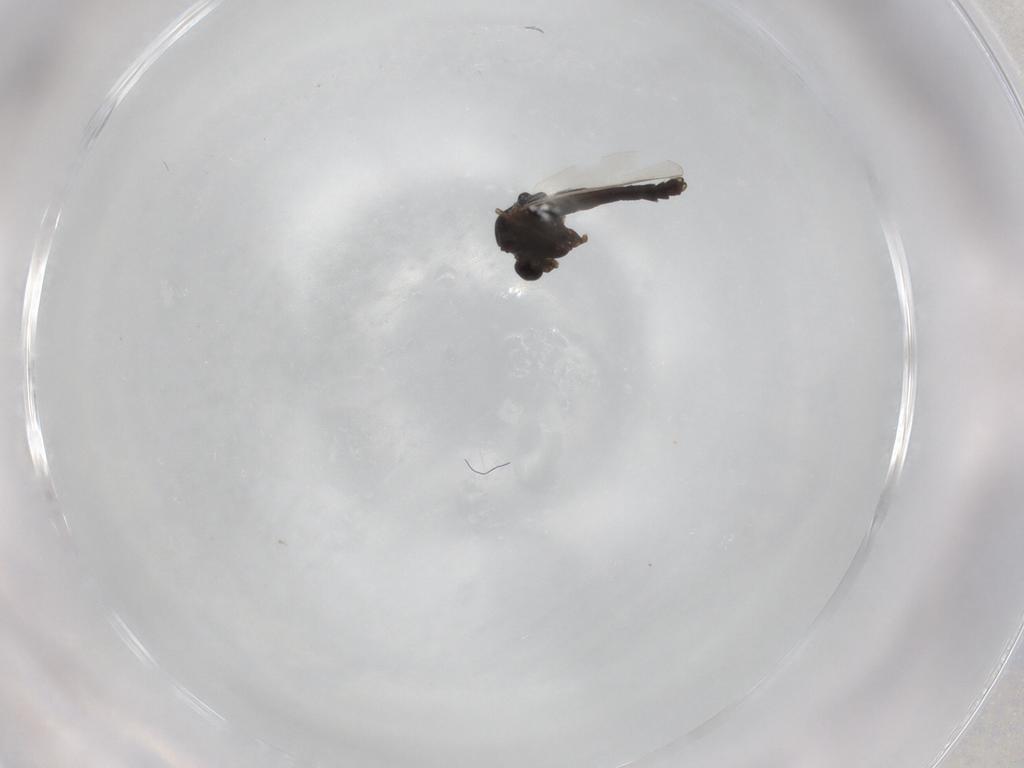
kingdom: Animalia
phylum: Arthropoda
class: Insecta
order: Diptera
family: Chironomidae
